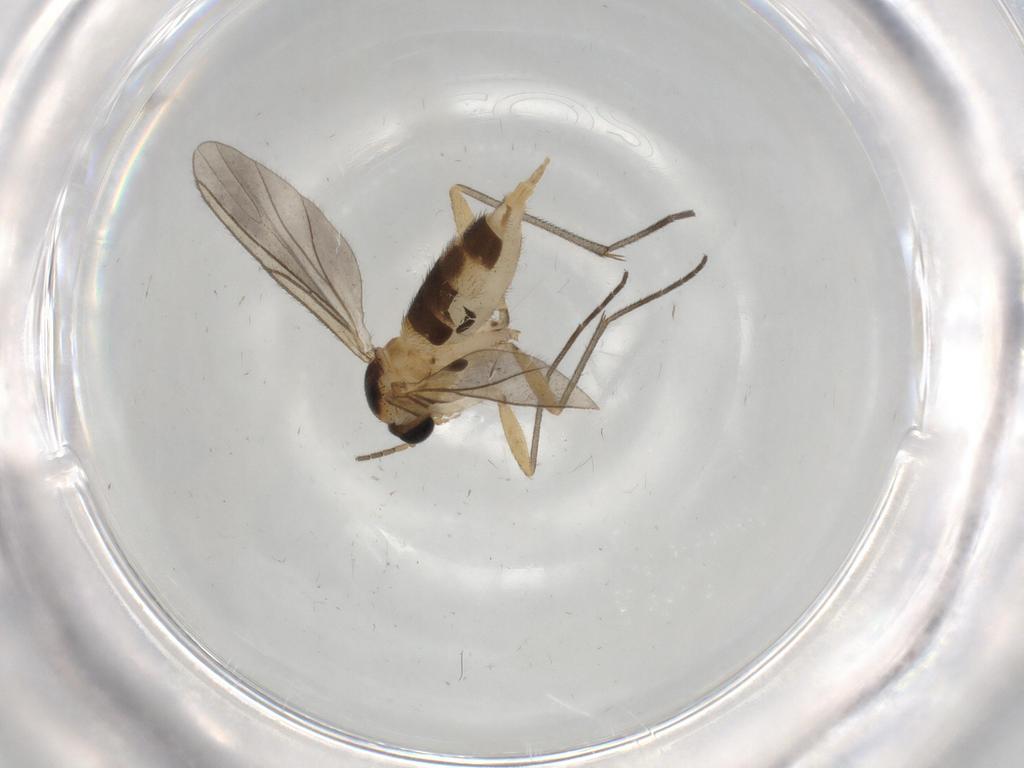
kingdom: Animalia
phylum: Arthropoda
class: Insecta
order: Diptera
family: Sciaridae
